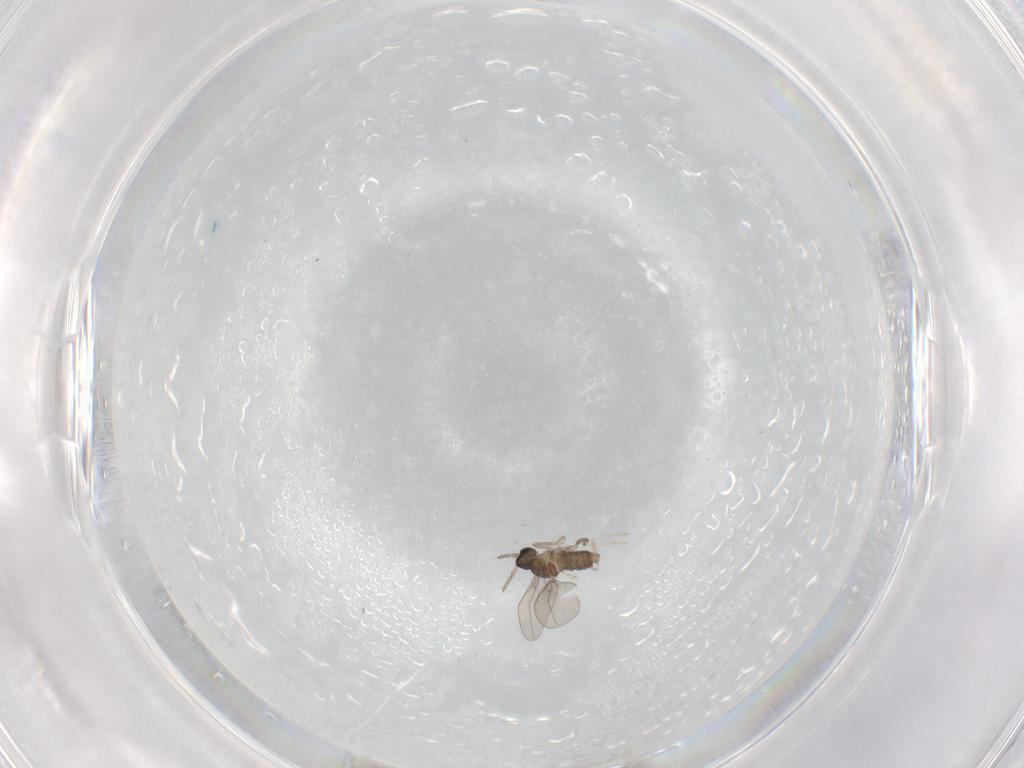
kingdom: Animalia
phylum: Arthropoda
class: Insecta
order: Diptera
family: Cecidomyiidae
